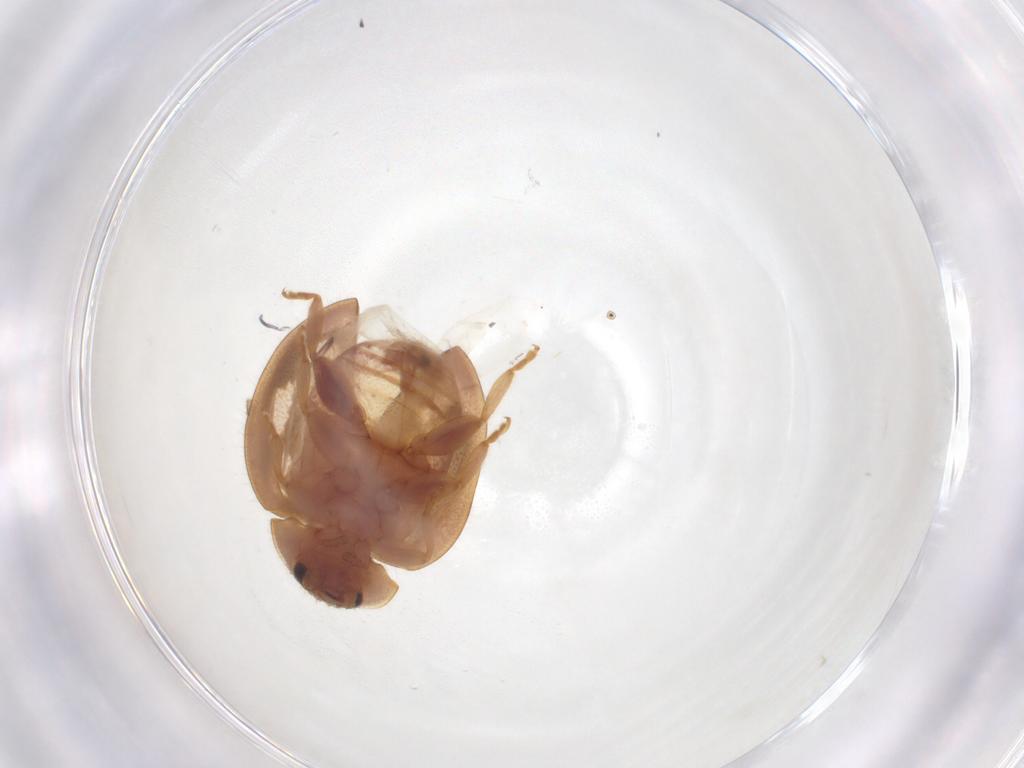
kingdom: Animalia
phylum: Arthropoda
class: Insecta
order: Coleoptera
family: Coccinellidae
